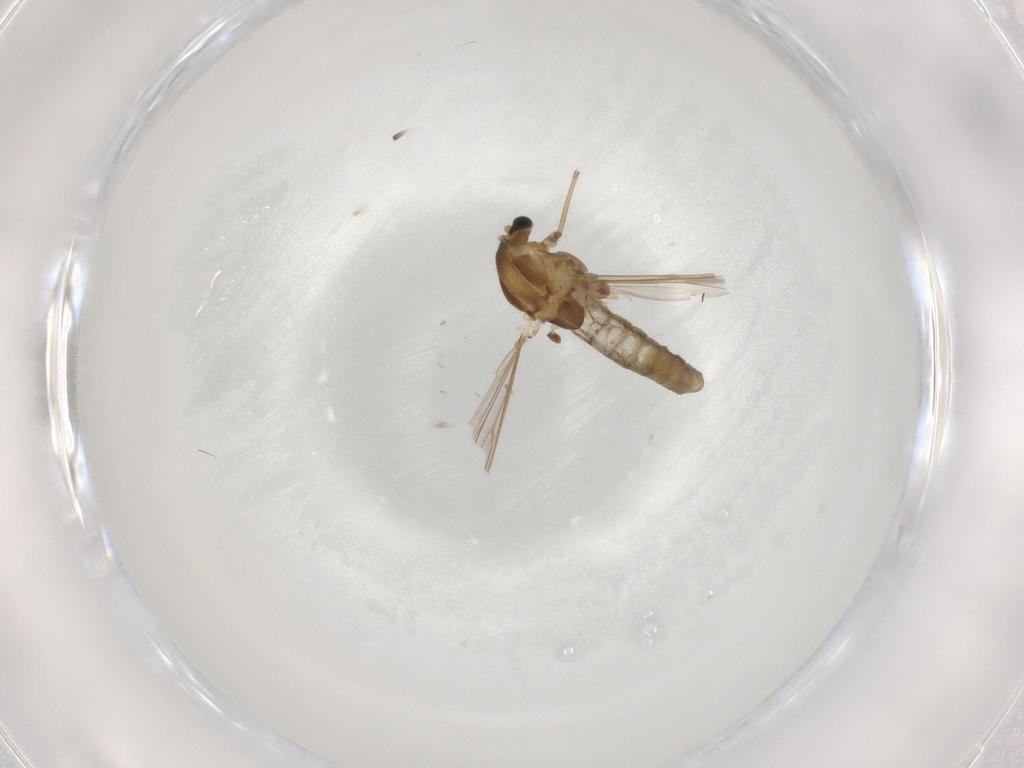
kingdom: Animalia
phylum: Arthropoda
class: Insecta
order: Diptera
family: Chironomidae
